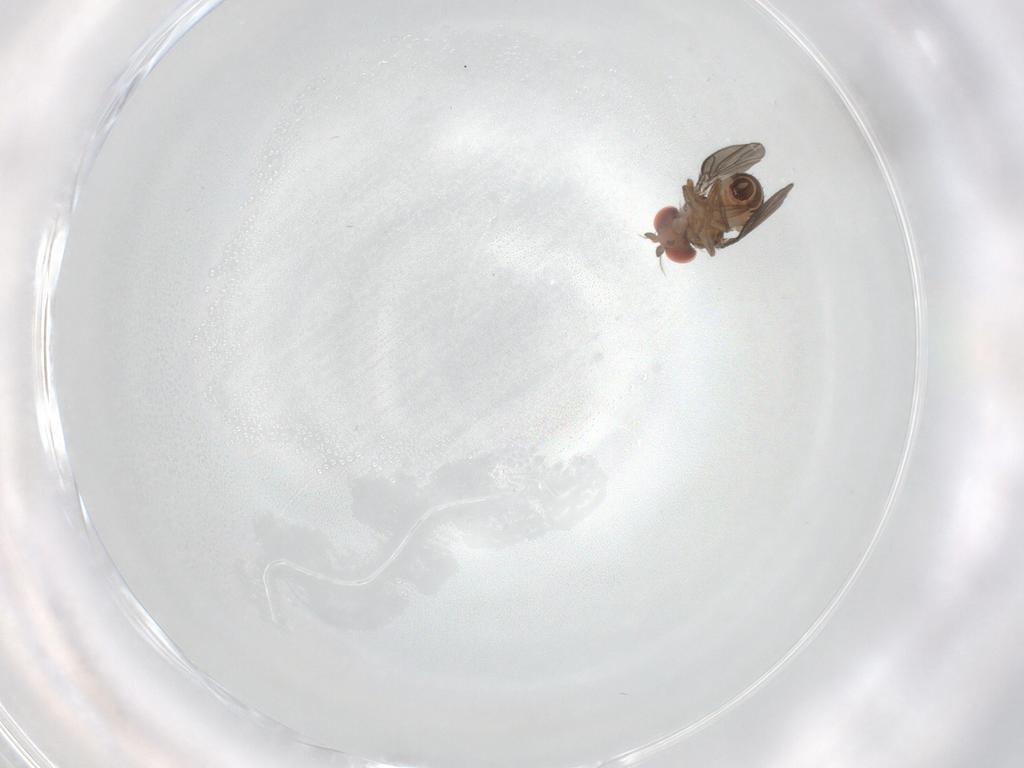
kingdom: Animalia
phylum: Arthropoda
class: Insecta
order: Diptera
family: Drosophilidae
